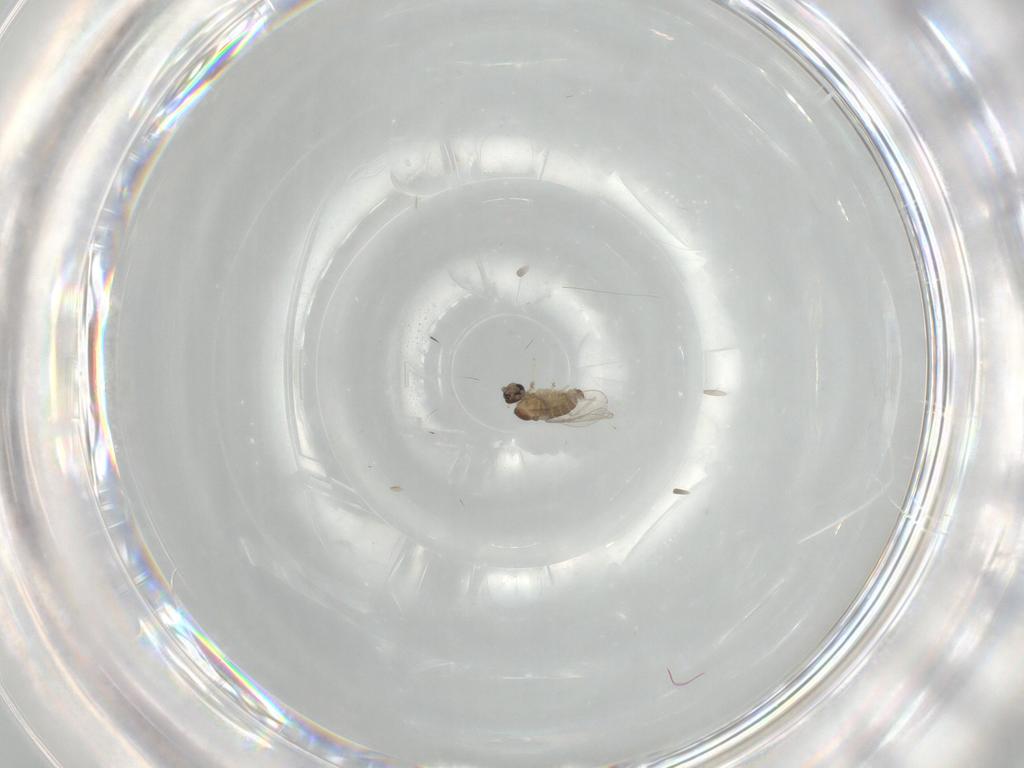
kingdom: Animalia
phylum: Arthropoda
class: Insecta
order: Diptera
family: Cecidomyiidae
